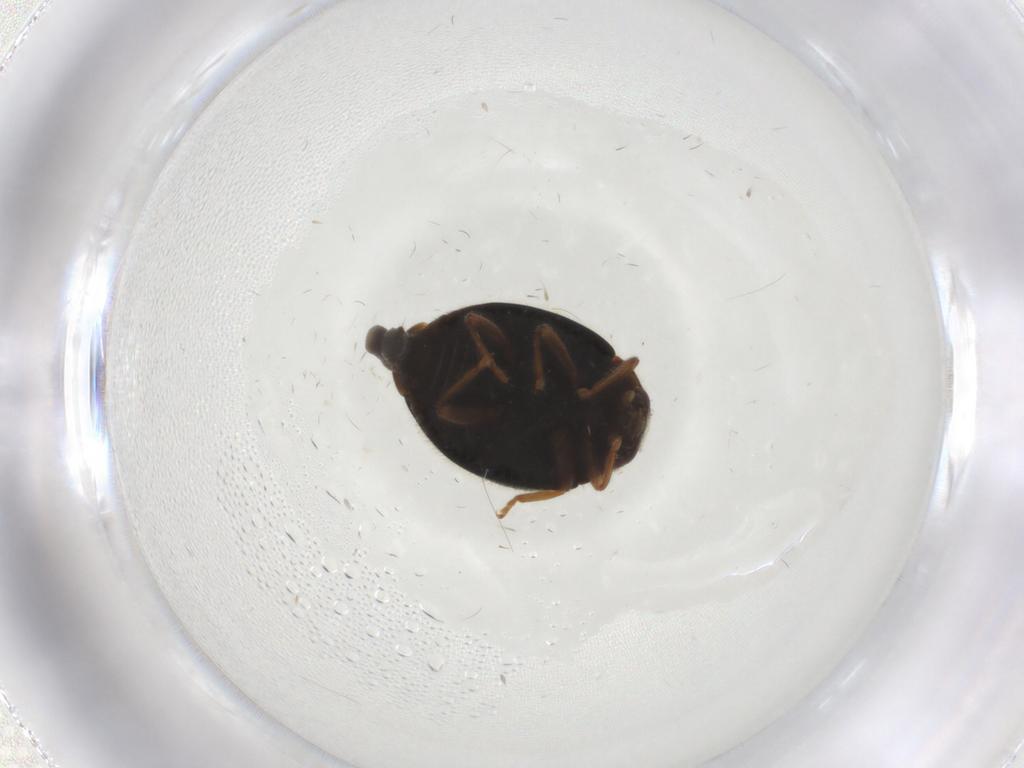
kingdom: Animalia
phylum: Arthropoda
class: Insecta
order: Coleoptera
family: Coccinellidae
